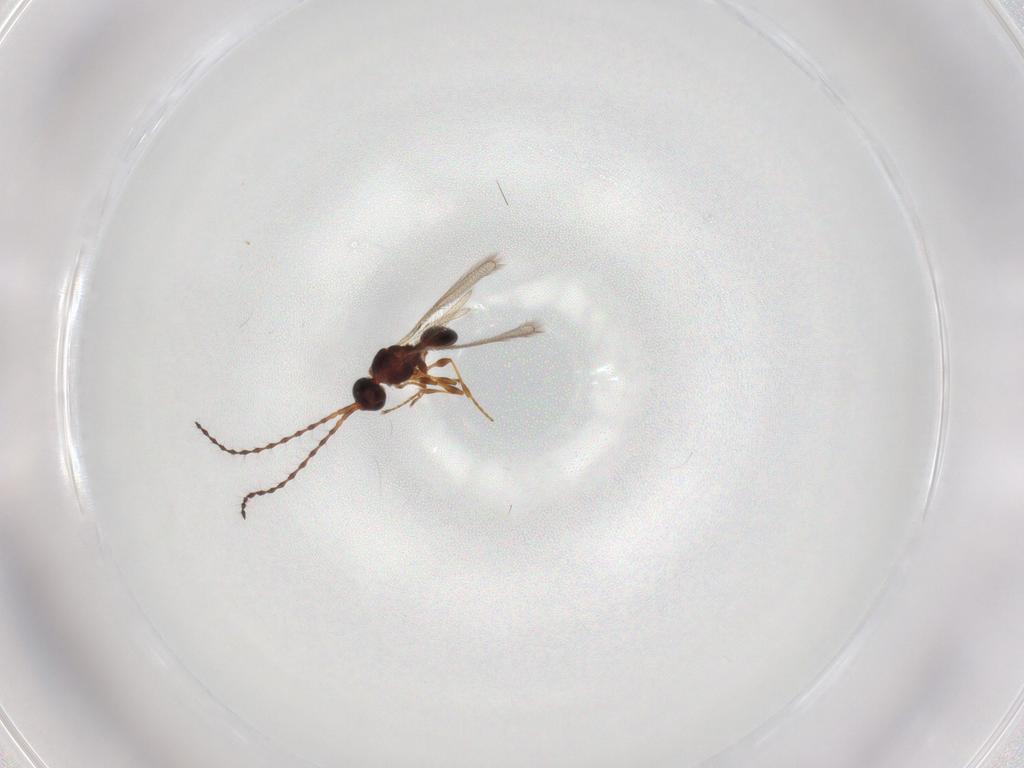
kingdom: Animalia
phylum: Arthropoda
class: Insecta
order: Hymenoptera
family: Diapriidae
